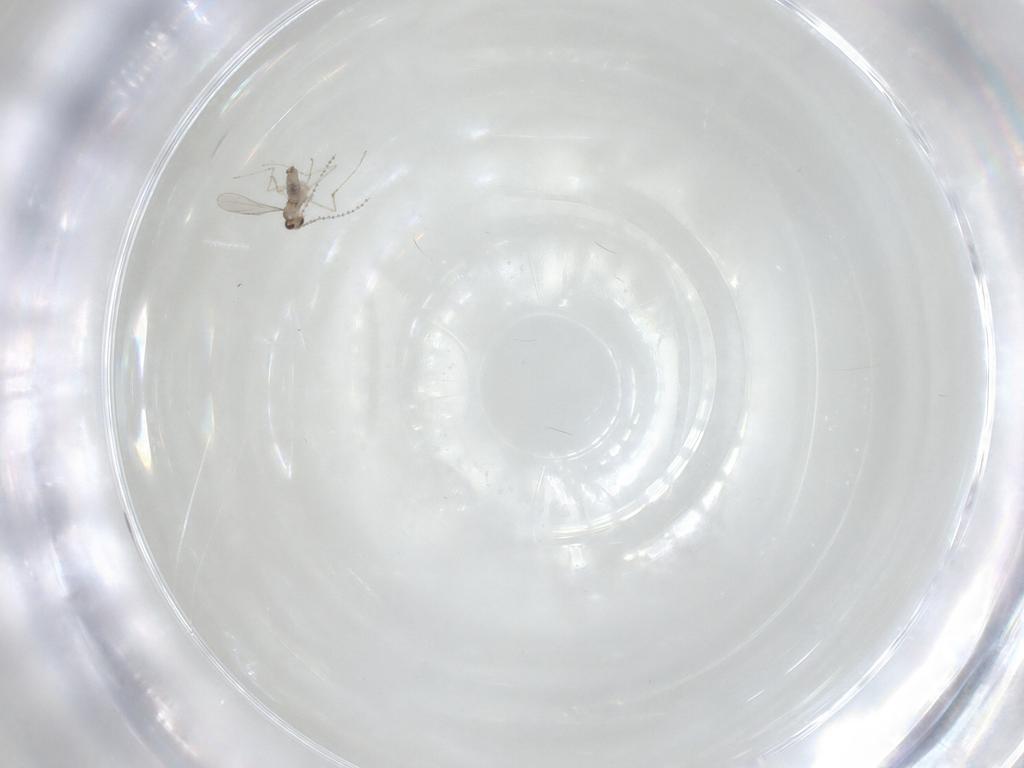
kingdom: Animalia
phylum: Arthropoda
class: Insecta
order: Diptera
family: Cecidomyiidae
